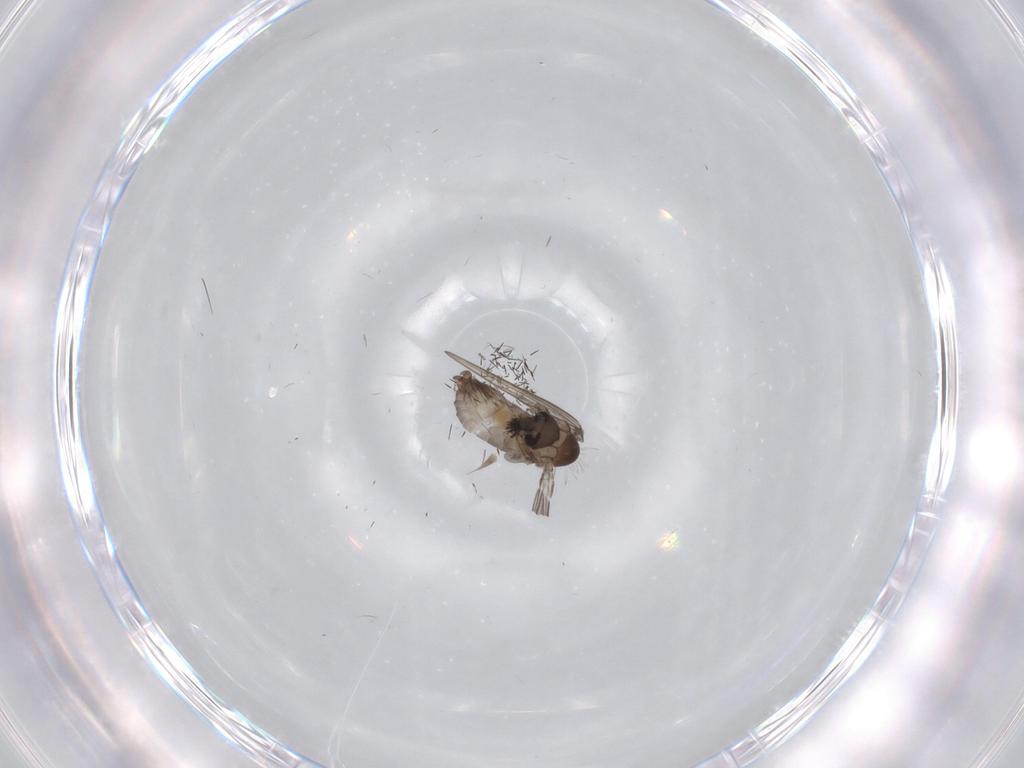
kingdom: Animalia
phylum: Arthropoda
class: Insecta
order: Diptera
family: Psychodidae
